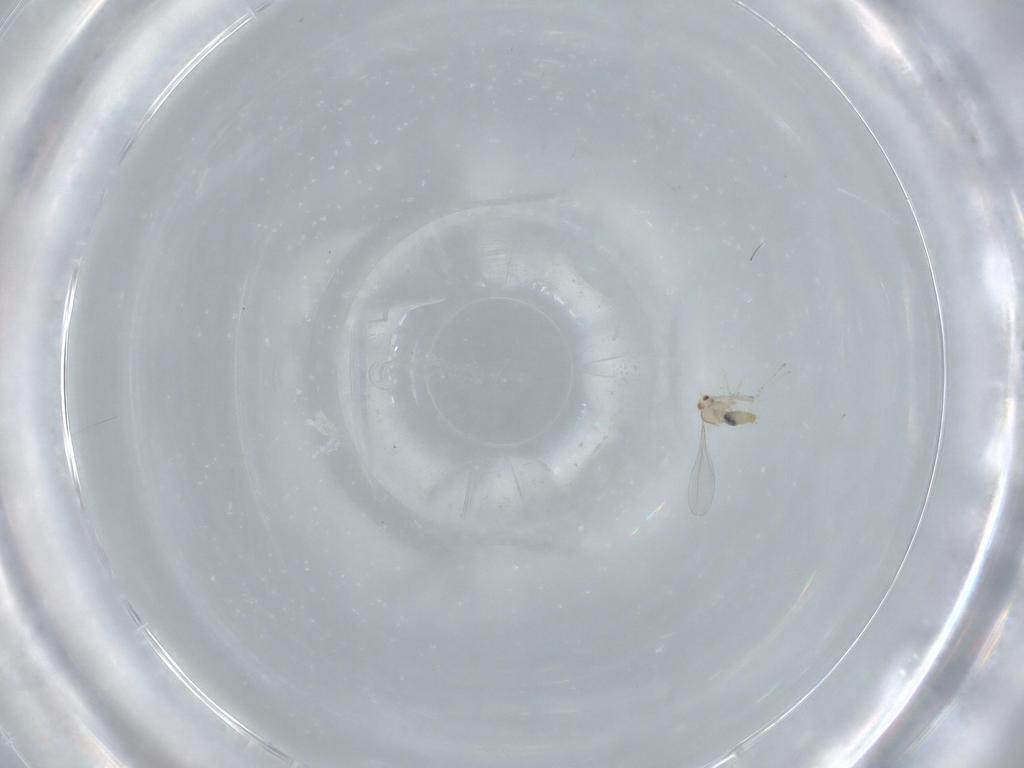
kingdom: Animalia
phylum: Arthropoda
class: Insecta
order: Diptera
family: Cecidomyiidae
